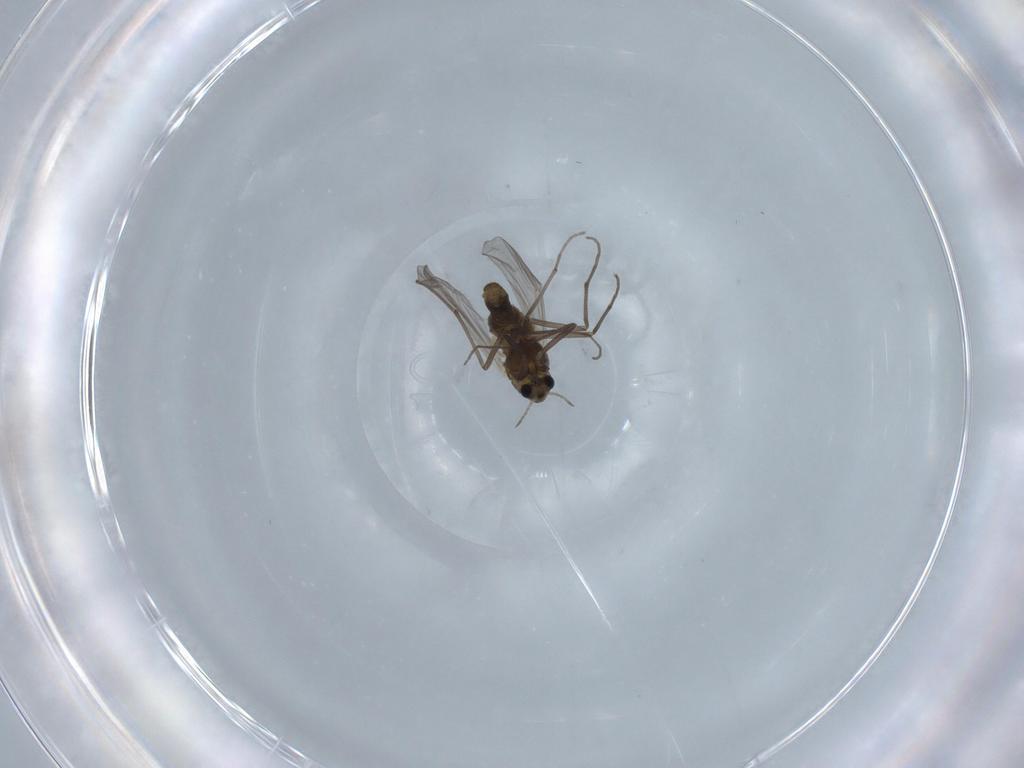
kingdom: Animalia
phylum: Arthropoda
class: Insecta
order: Diptera
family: Chironomidae
